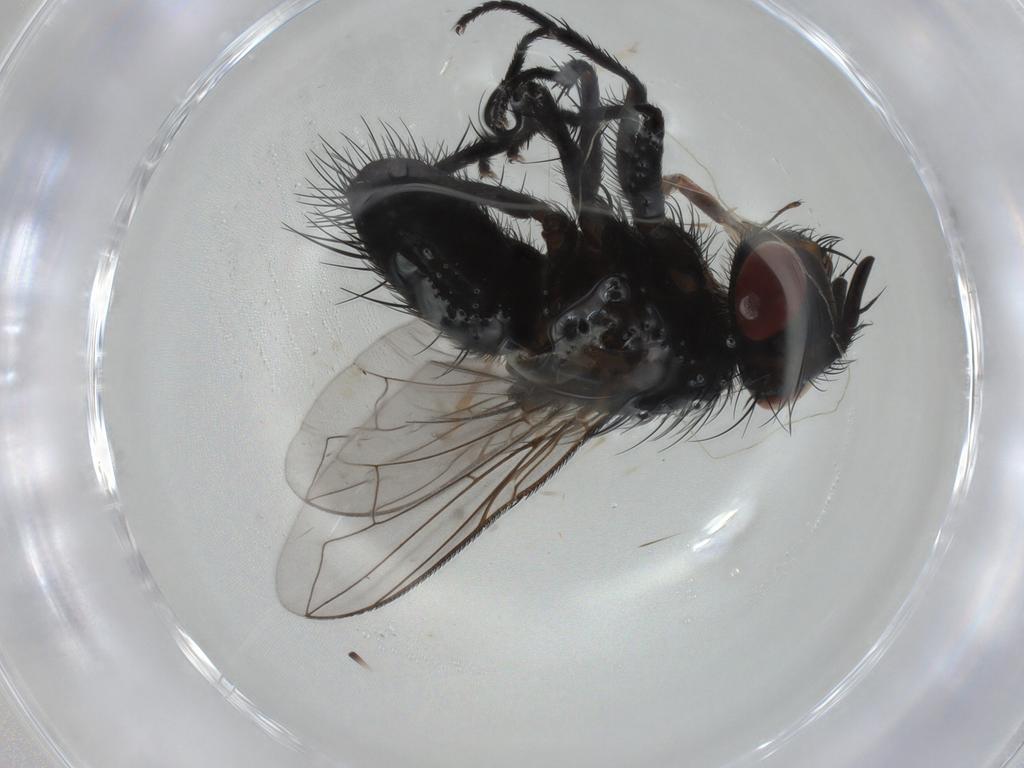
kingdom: Animalia
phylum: Arthropoda
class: Insecta
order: Diptera
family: Tachinidae
